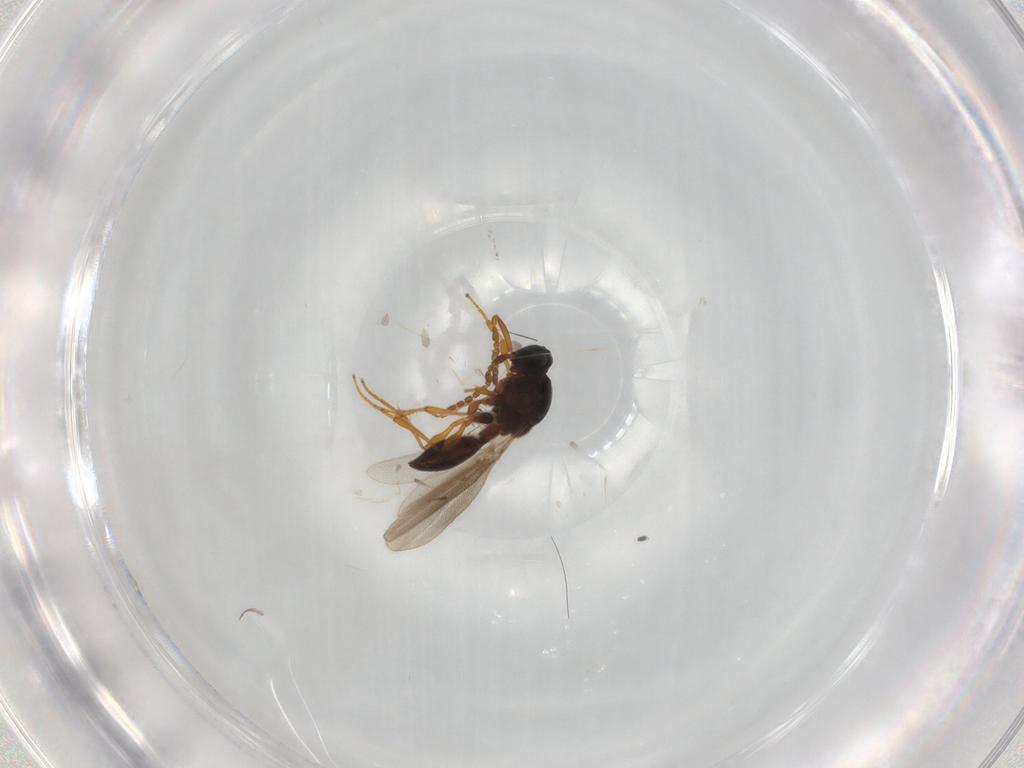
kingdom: Animalia
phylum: Arthropoda
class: Insecta
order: Hymenoptera
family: Platygastridae
